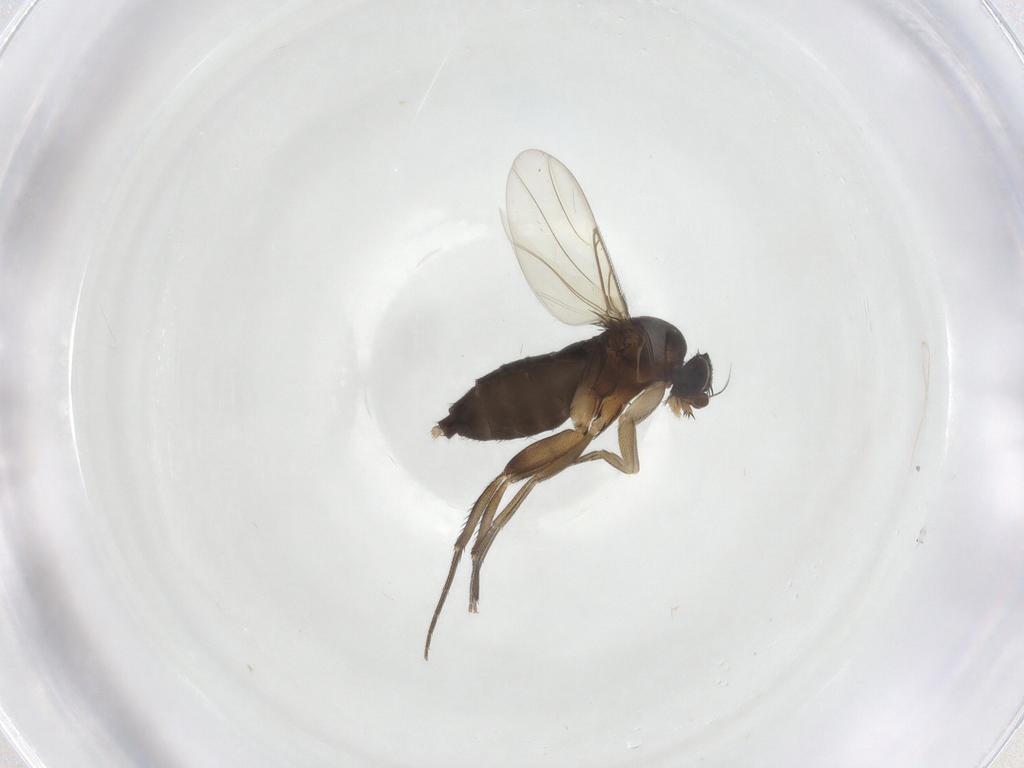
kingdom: Animalia
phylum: Arthropoda
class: Insecta
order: Diptera
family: Phoridae
